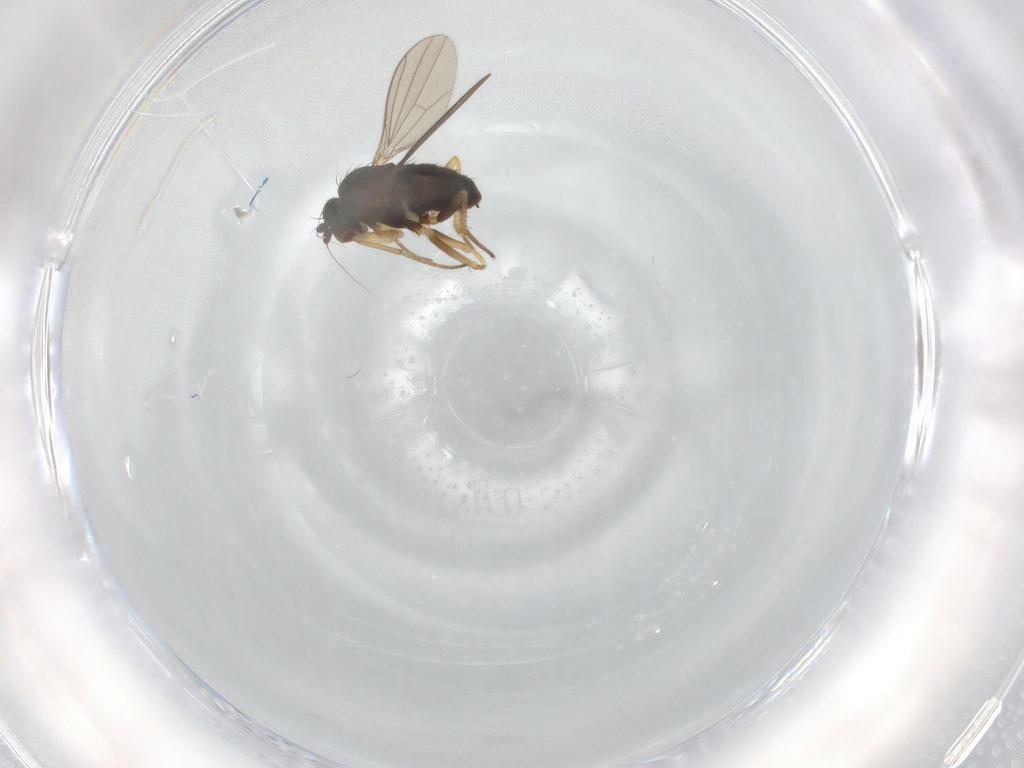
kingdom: Animalia
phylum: Arthropoda
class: Insecta
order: Diptera
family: Dolichopodidae
